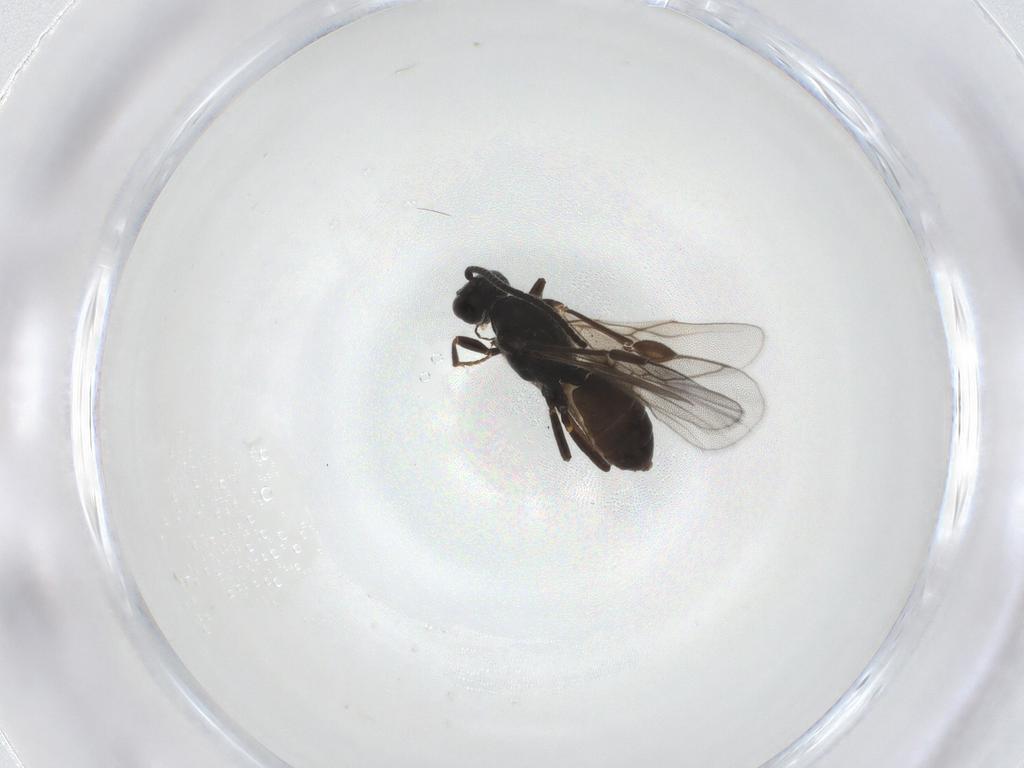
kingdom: Animalia
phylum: Arthropoda
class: Insecta
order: Hymenoptera
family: Braconidae
